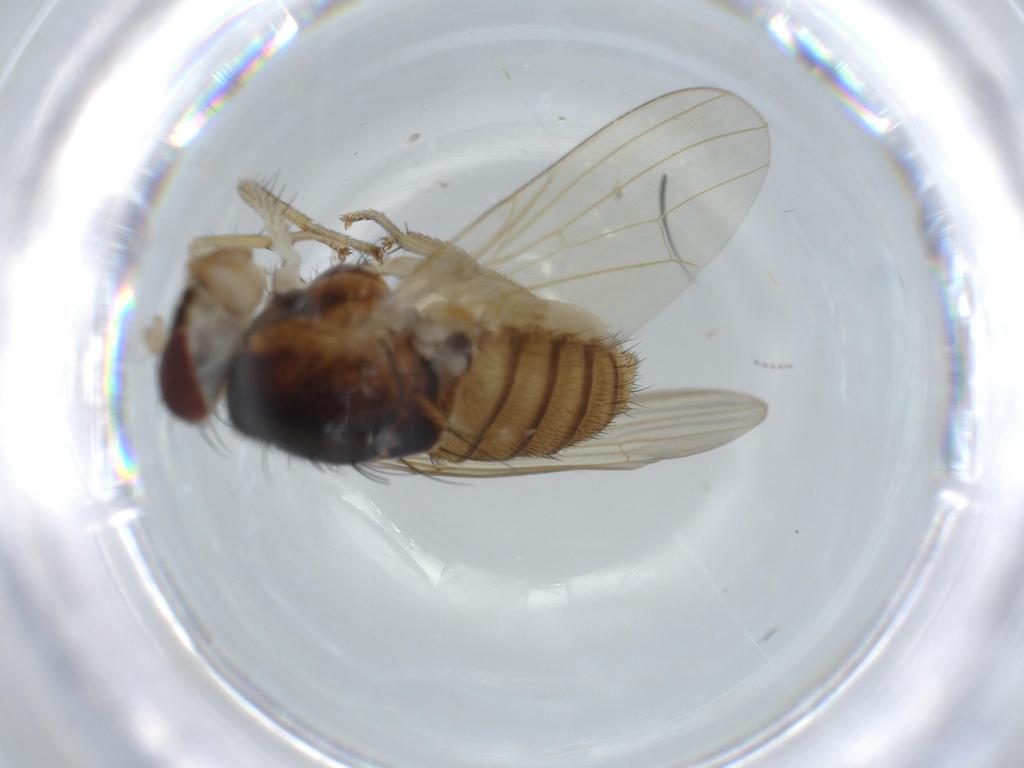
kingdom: Animalia
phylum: Arthropoda
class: Insecta
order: Diptera
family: Lauxaniidae
